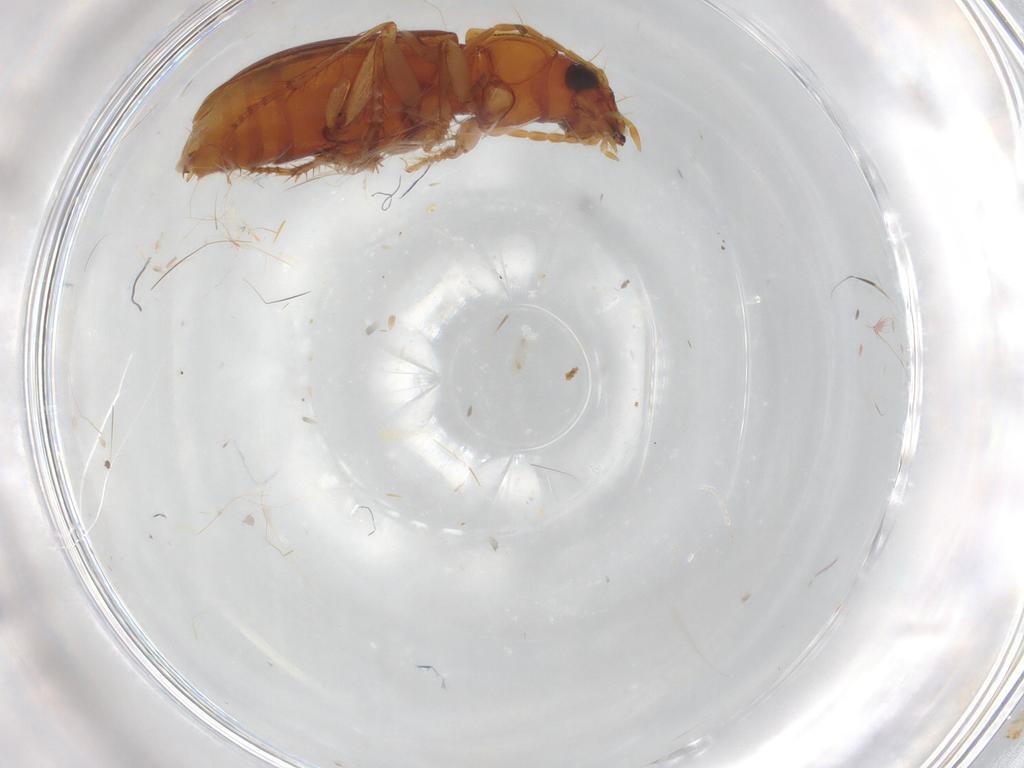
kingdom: Animalia
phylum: Arthropoda
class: Insecta
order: Coleoptera
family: Carabidae
